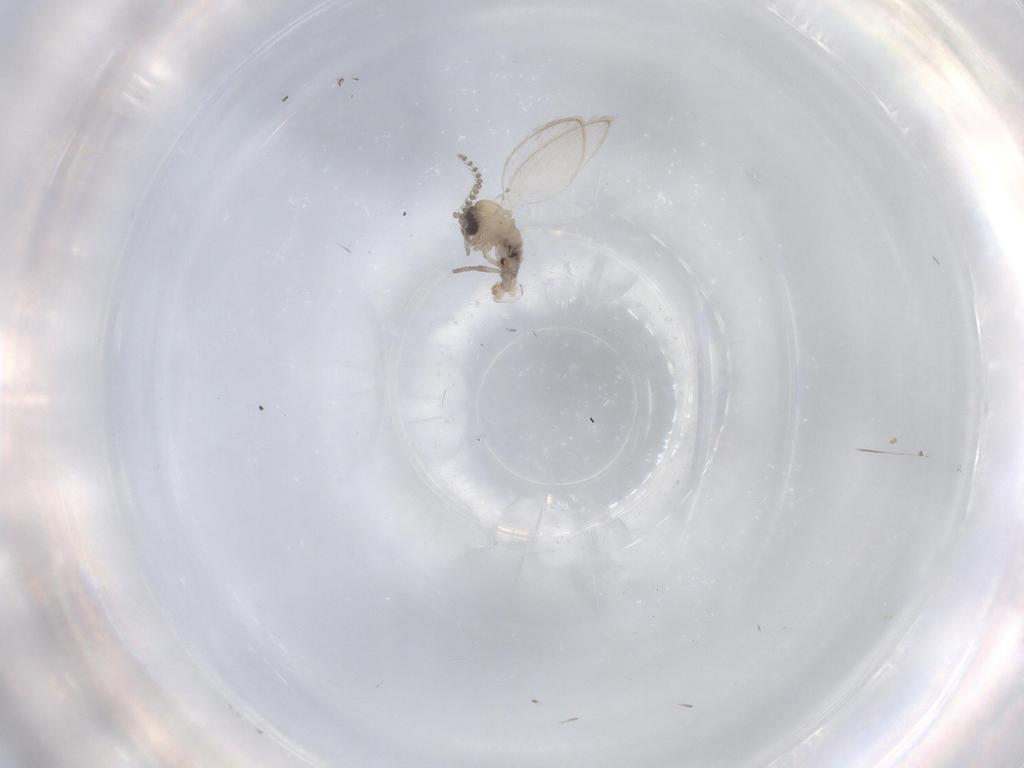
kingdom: Animalia
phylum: Arthropoda
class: Insecta
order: Diptera
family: Psychodidae
